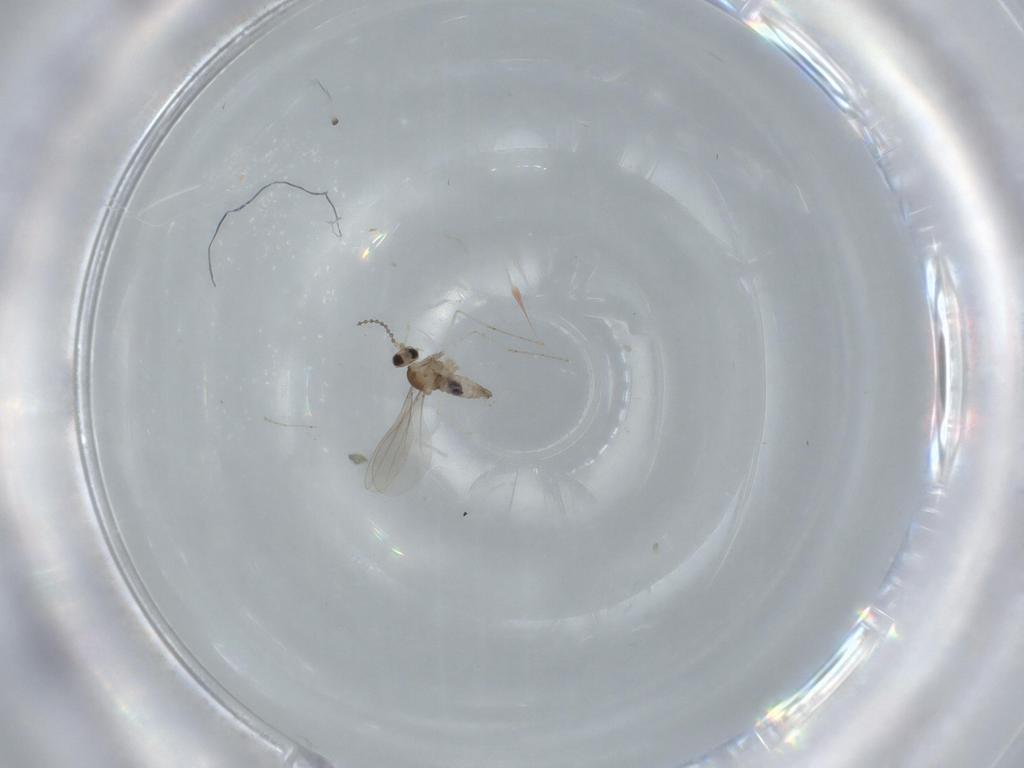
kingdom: Animalia
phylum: Arthropoda
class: Insecta
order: Diptera
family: Cecidomyiidae
